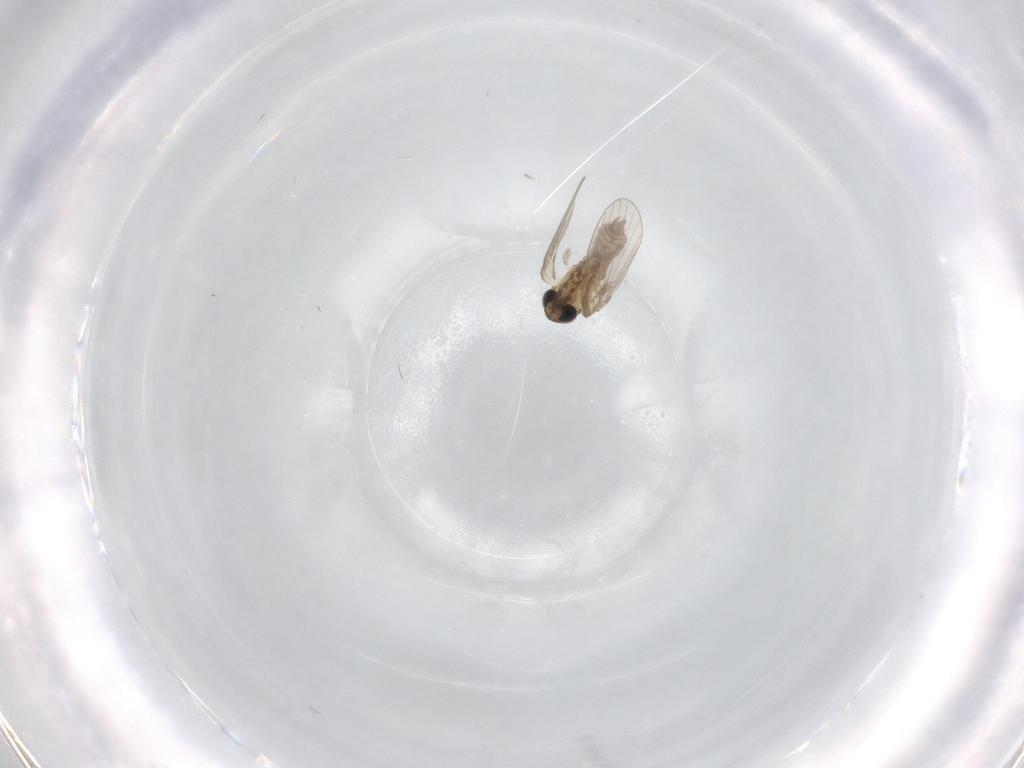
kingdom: Animalia
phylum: Arthropoda
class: Insecta
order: Diptera
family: Psychodidae
